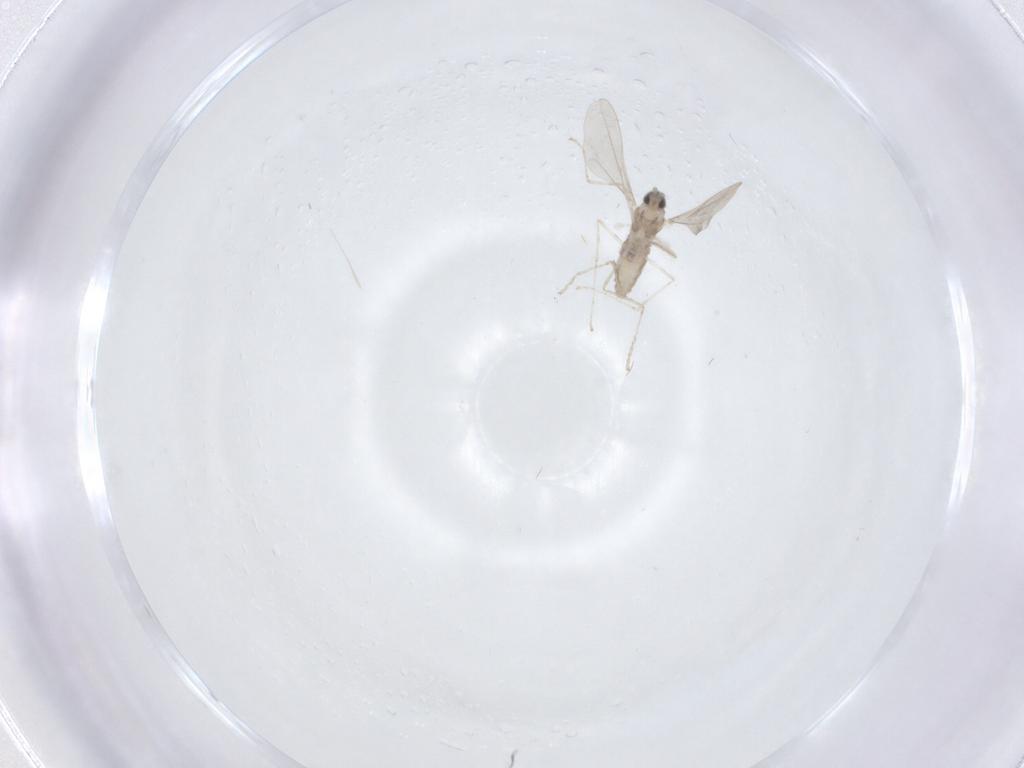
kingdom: Animalia
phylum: Arthropoda
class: Insecta
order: Diptera
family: Cecidomyiidae
